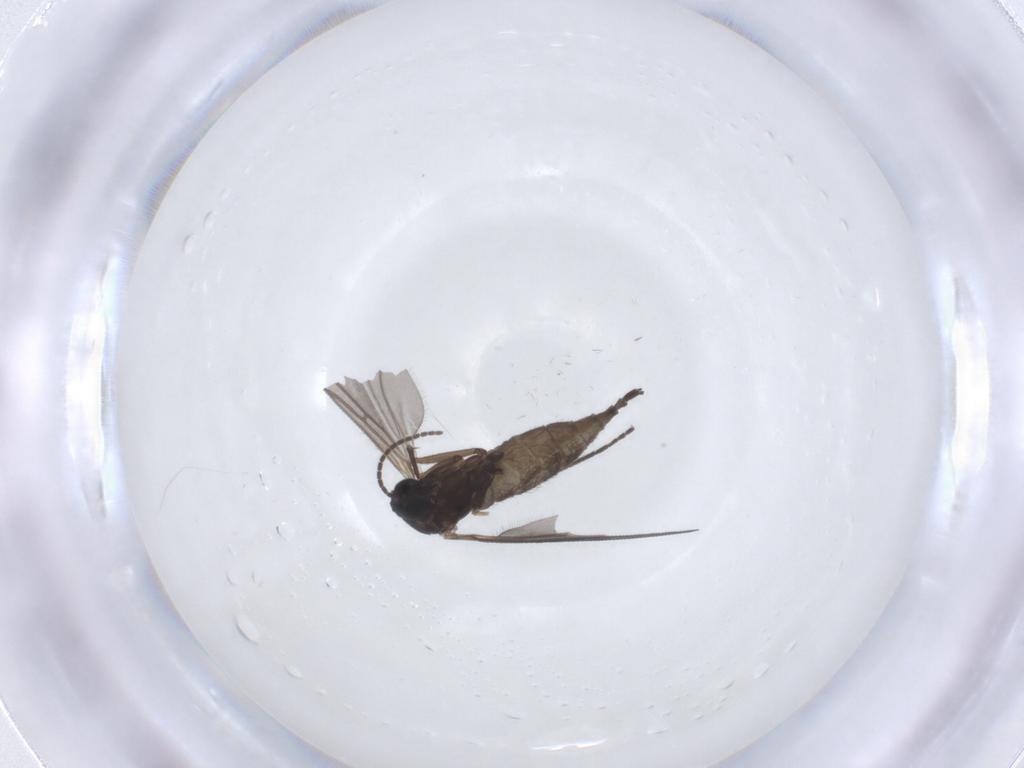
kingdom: Animalia
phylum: Arthropoda
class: Insecta
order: Diptera
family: Sciaridae
